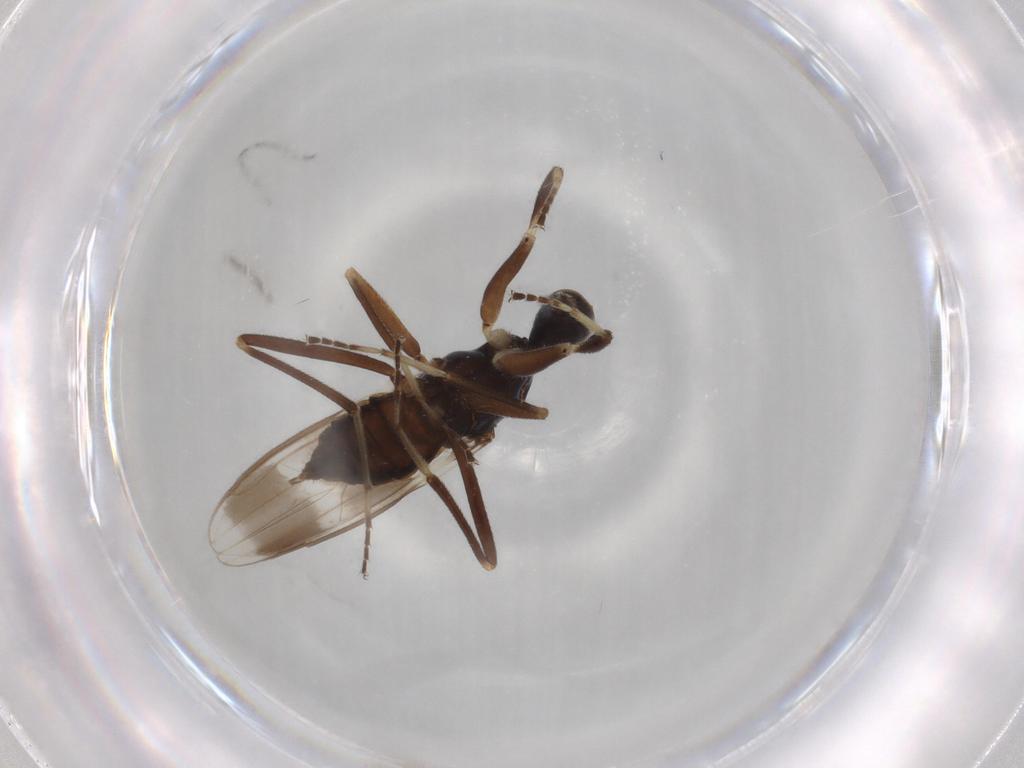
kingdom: Animalia
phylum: Arthropoda
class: Insecta
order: Diptera
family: Hybotidae
